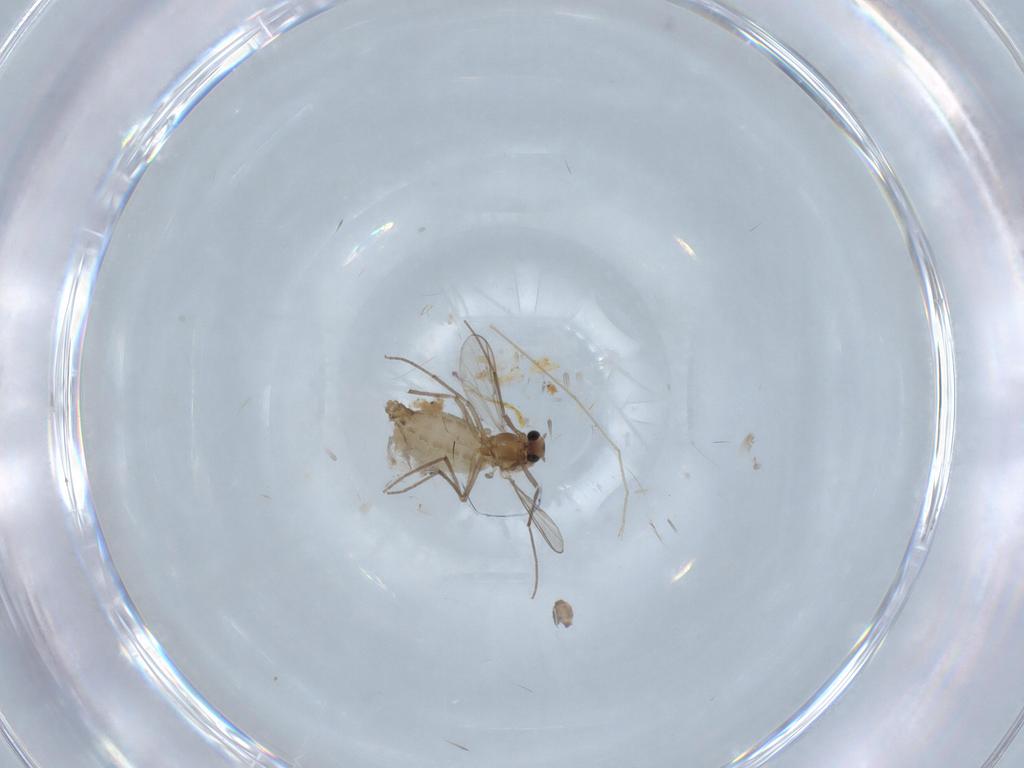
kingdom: Animalia
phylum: Arthropoda
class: Insecta
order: Diptera
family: Chironomidae
